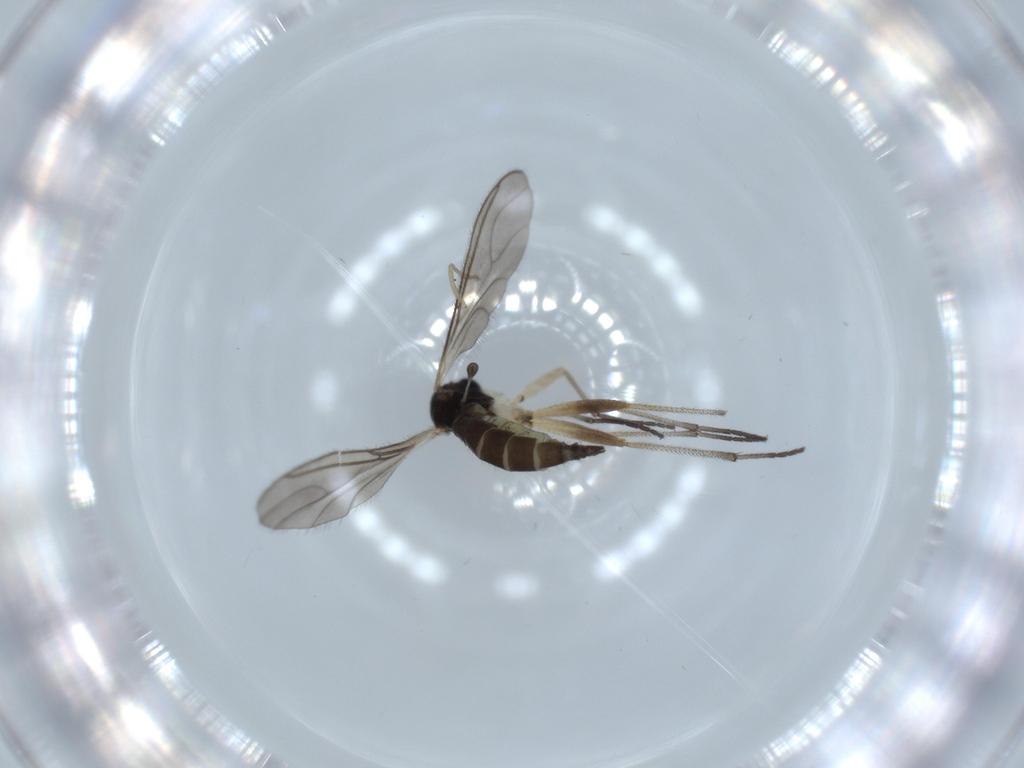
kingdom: Animalia
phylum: Arthropoda
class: Insecta
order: Diptera
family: Sciaridae
